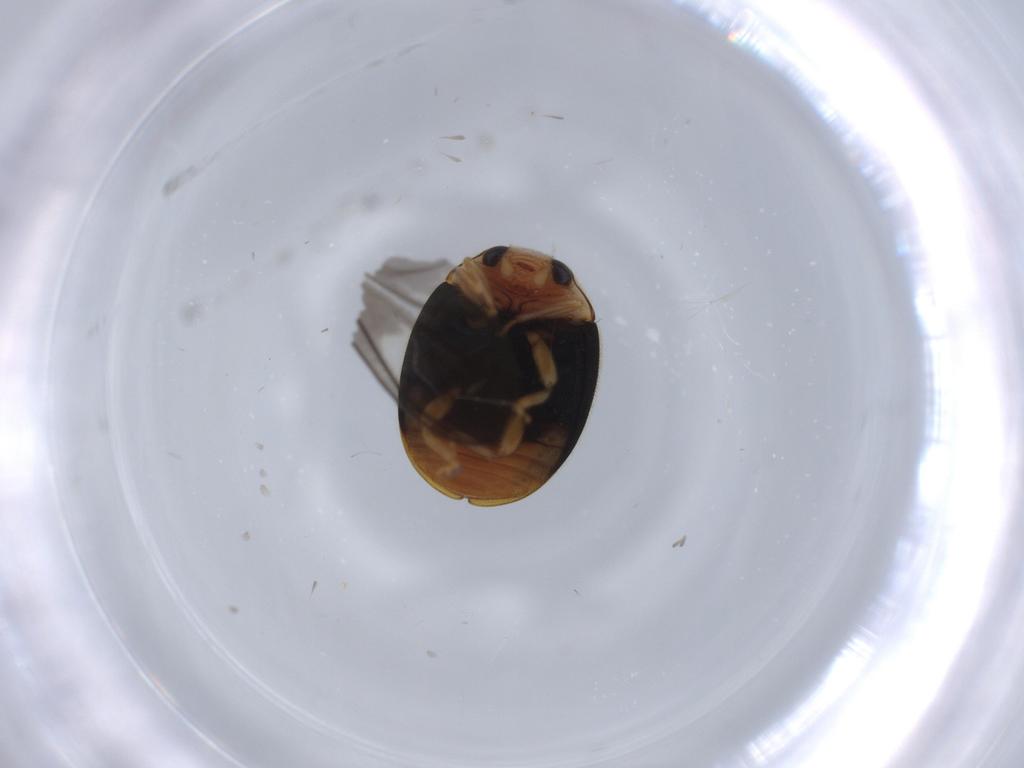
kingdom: Animalia
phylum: Arthropoda
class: Insecta
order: Coleoptera
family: Coccinellidae
